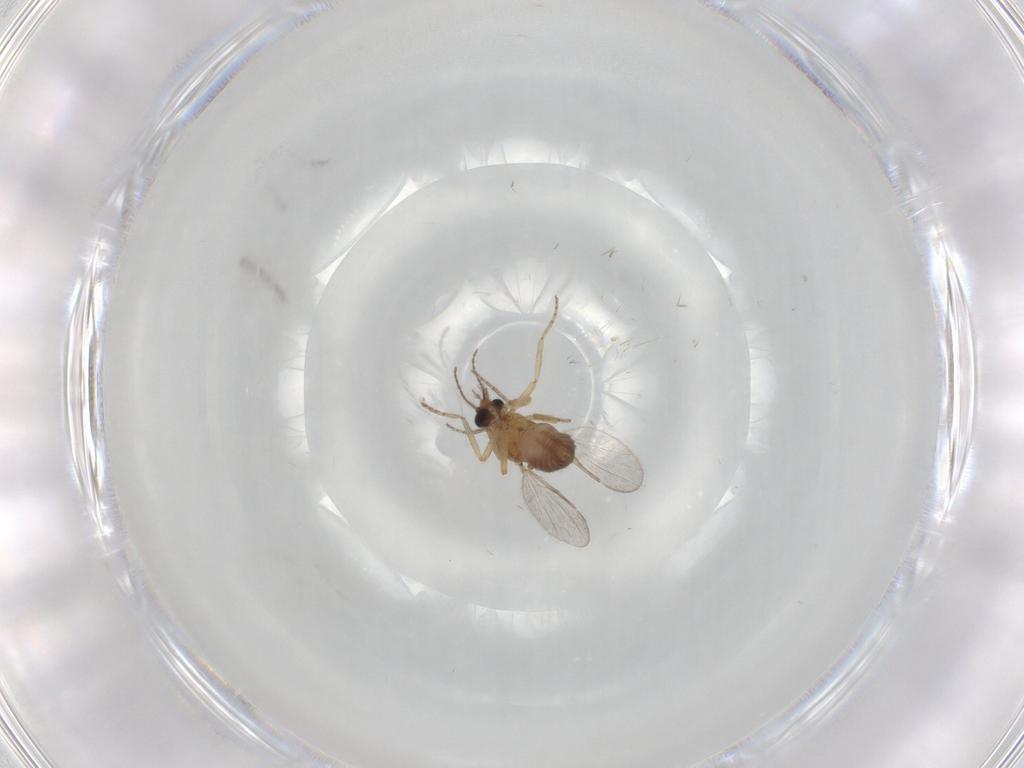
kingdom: Animalia
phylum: Arthropoda
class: Insecta
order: Diptera
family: Ceratopogonidae
